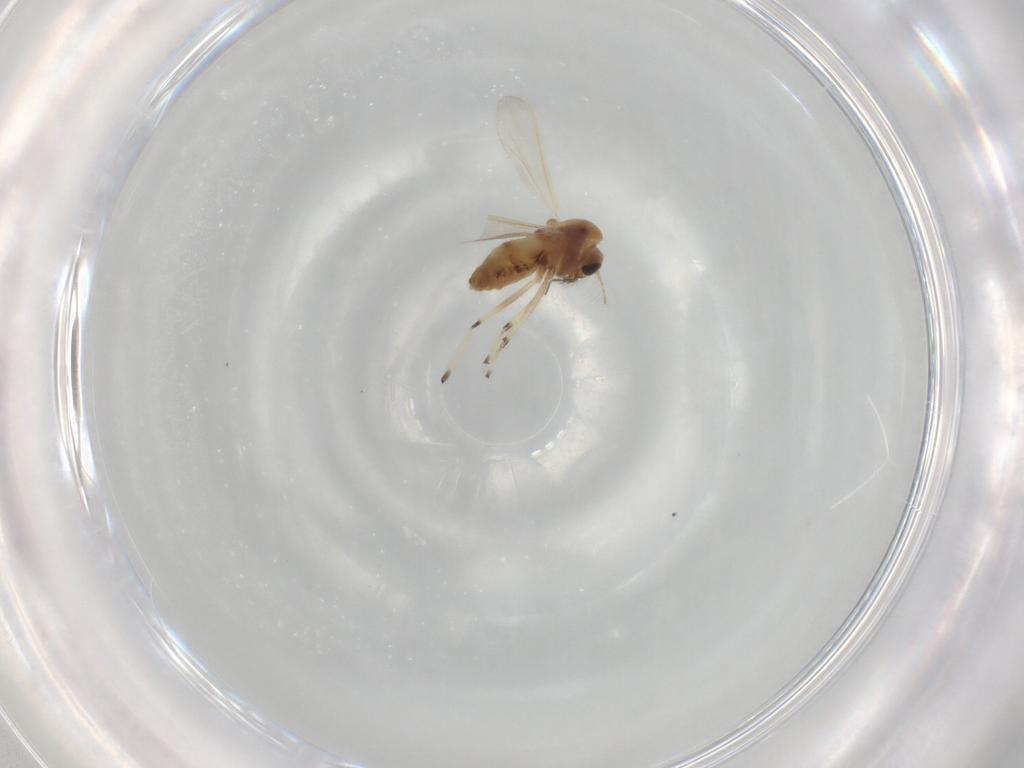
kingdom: Animalia
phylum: Arthropoda
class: Insecta
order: Diptera
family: Chironomidae
